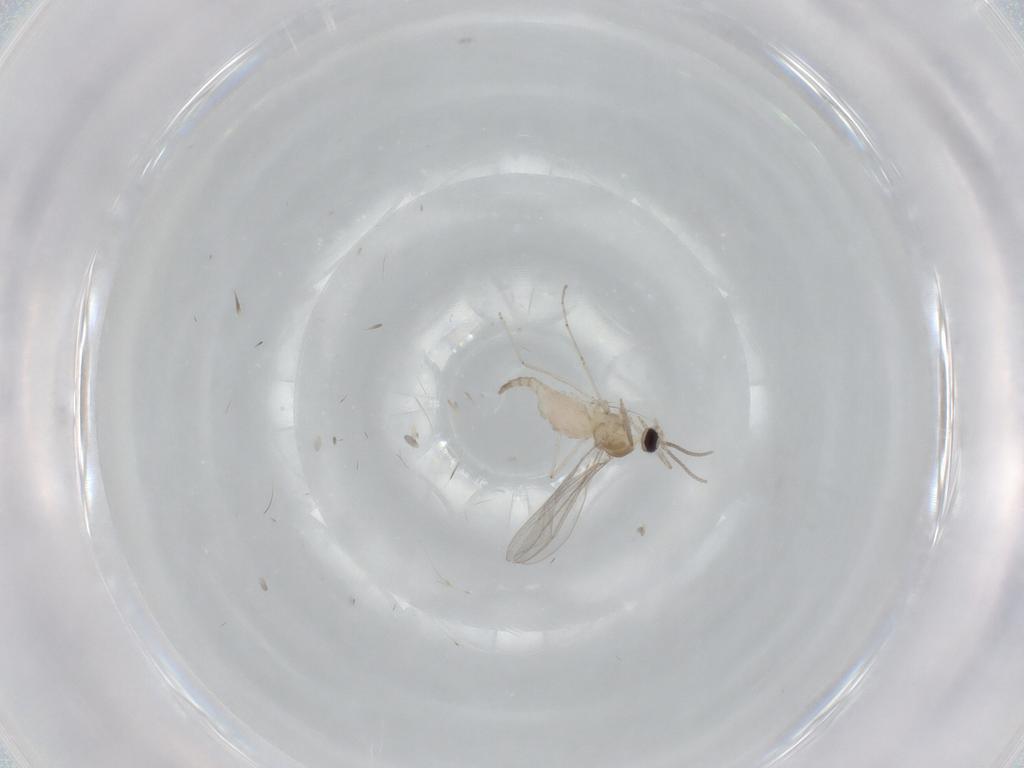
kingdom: Animalia
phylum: Arthropoda
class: Insecta
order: Diptera
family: Cecidomyiidae
